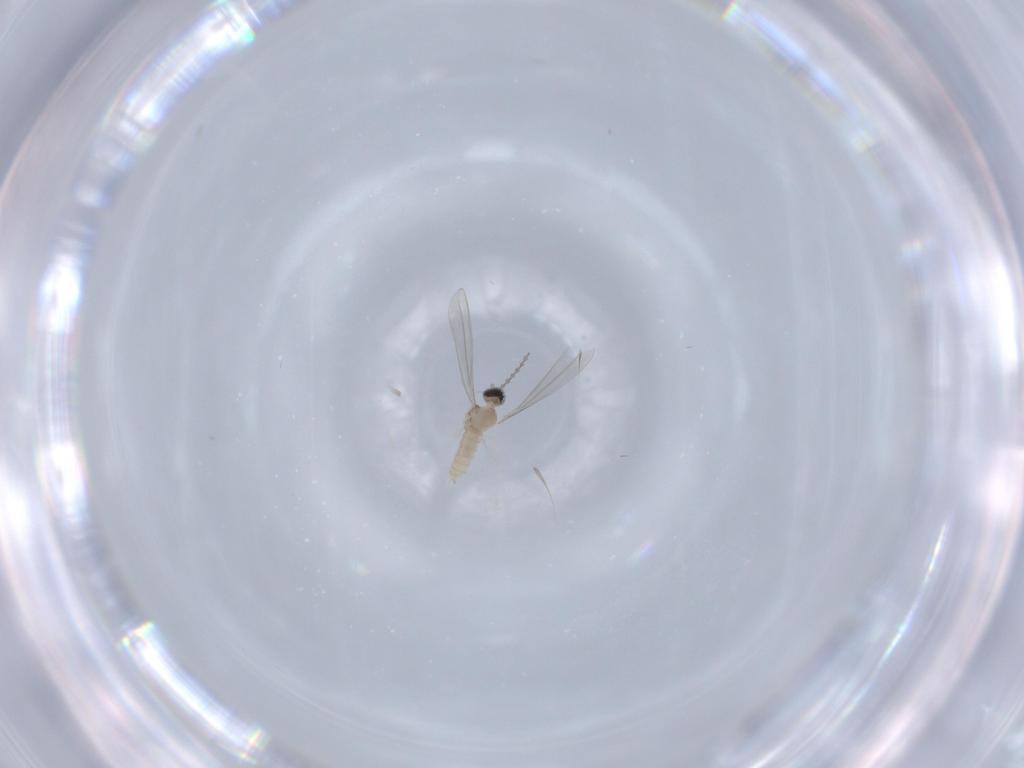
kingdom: Animalia
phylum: Arthropoda
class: Insecta
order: Diptera
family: Cecidomyiidae
